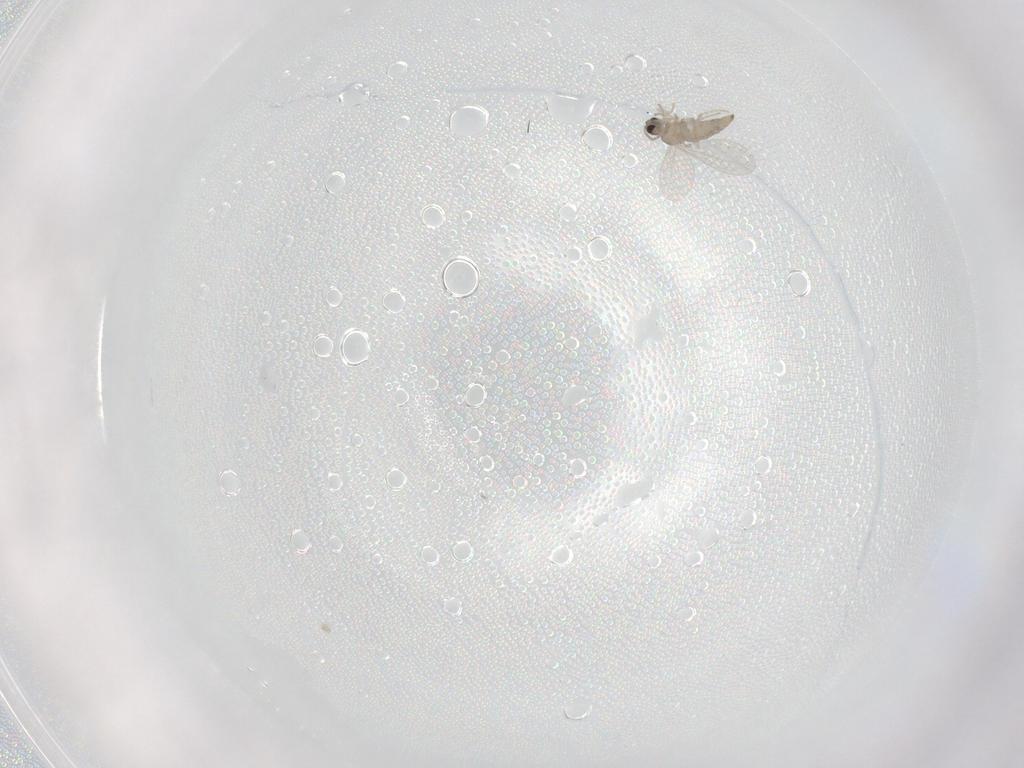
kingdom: Animalia
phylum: Arthropoda
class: Insecta
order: Diptera
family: Cecidomyiidae
